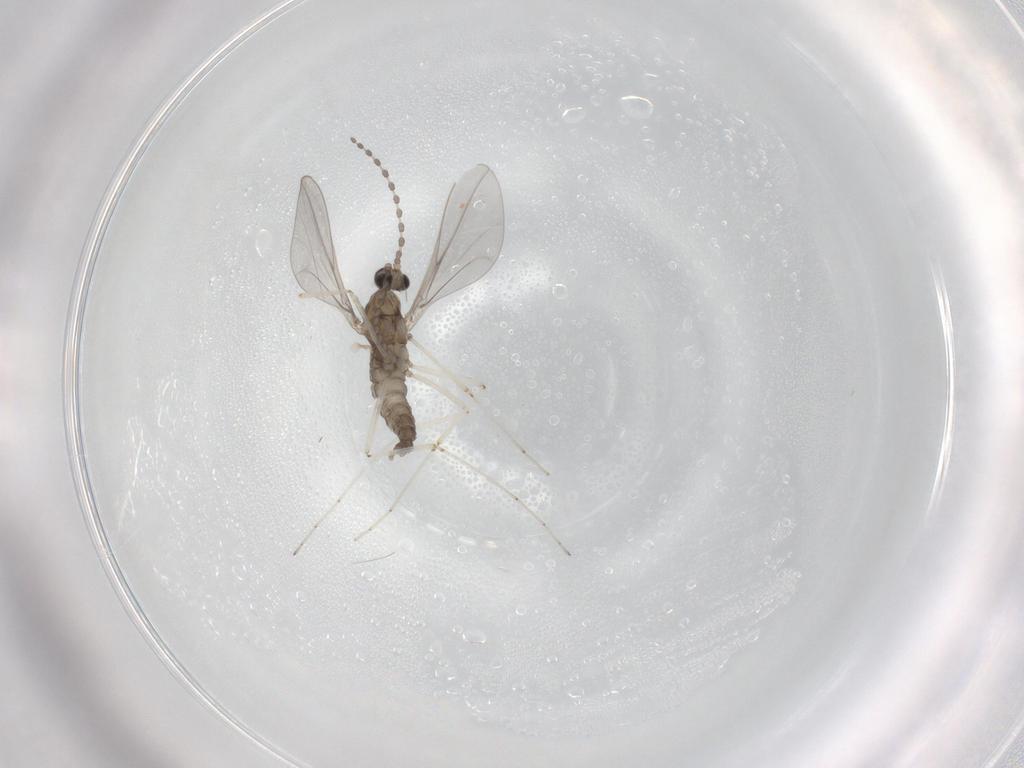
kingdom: Animalia
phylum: Arthropoda
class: Insecta
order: Diptera
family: Cecidomyiidae
